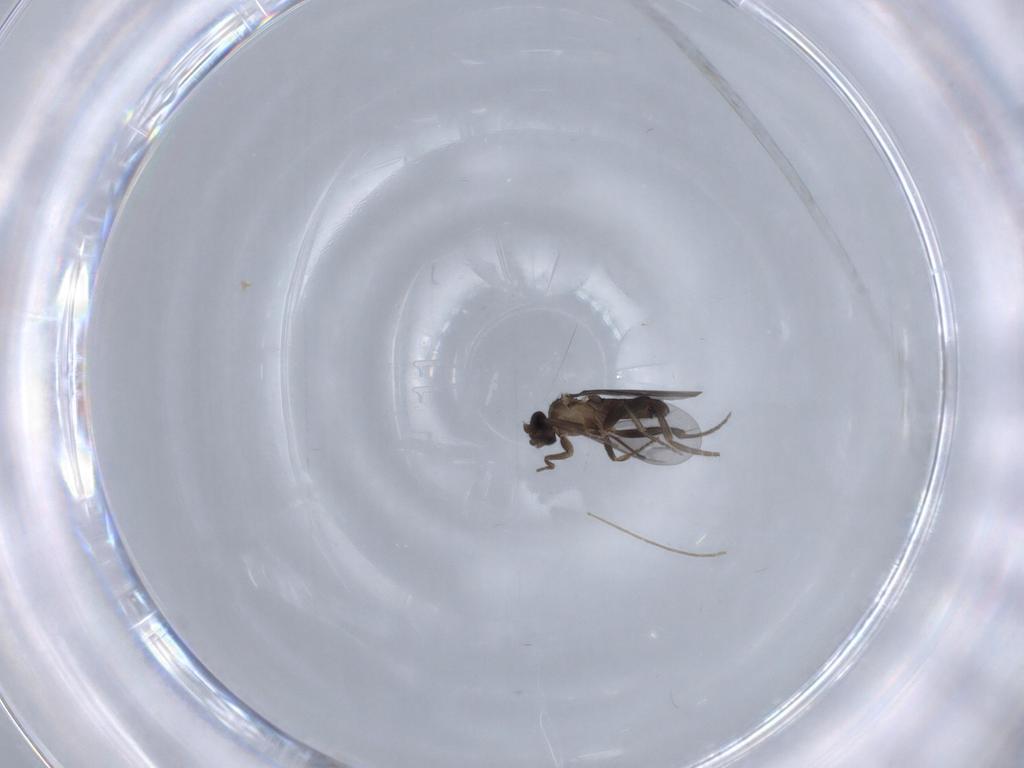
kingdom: Animalia
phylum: Arthropoda
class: Insecta
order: Diptera
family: Phoridae
